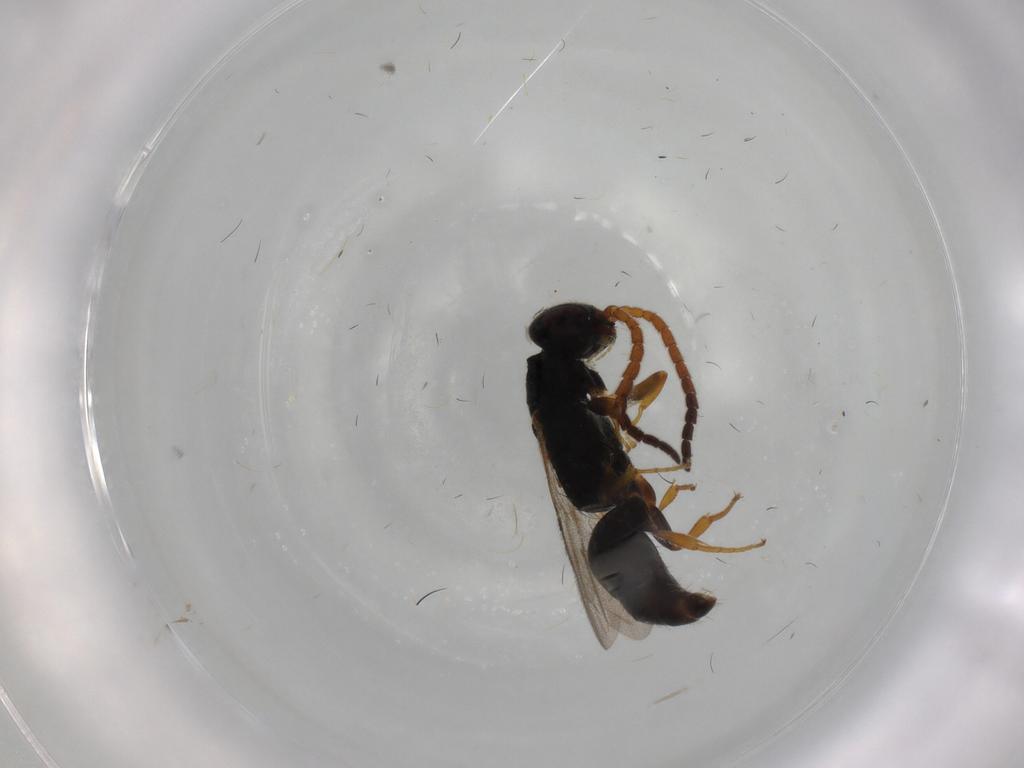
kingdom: Animalia
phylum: Arthropoda
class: Insecta
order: Hymenoptera
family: Bethylidae
